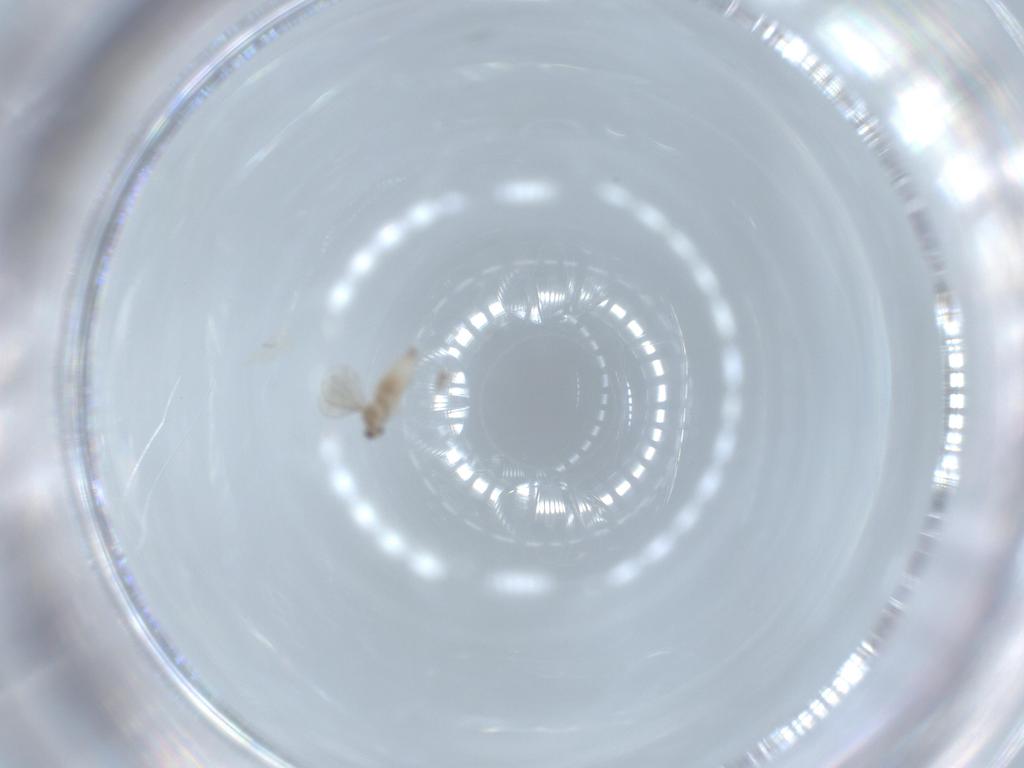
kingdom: Animalia
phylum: Arthropoda
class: Insecta
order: Diptera
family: Cecidomyiidae
